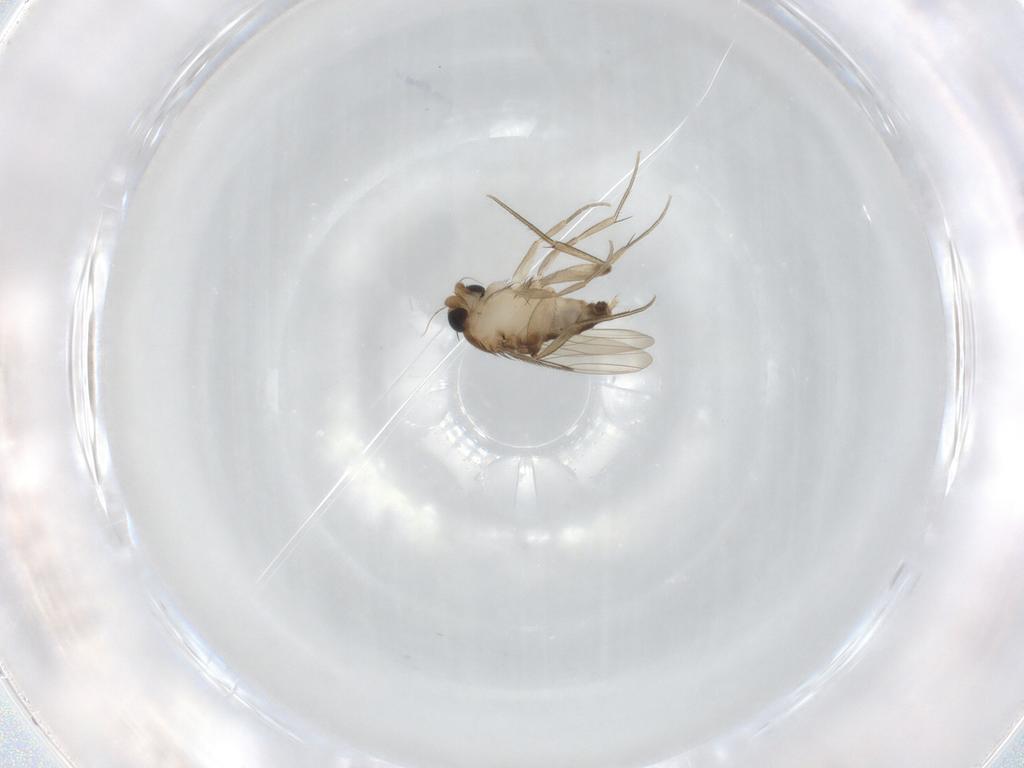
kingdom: Animalia
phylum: Arthropoda
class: Insecta
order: Diptera
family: Phoridae
